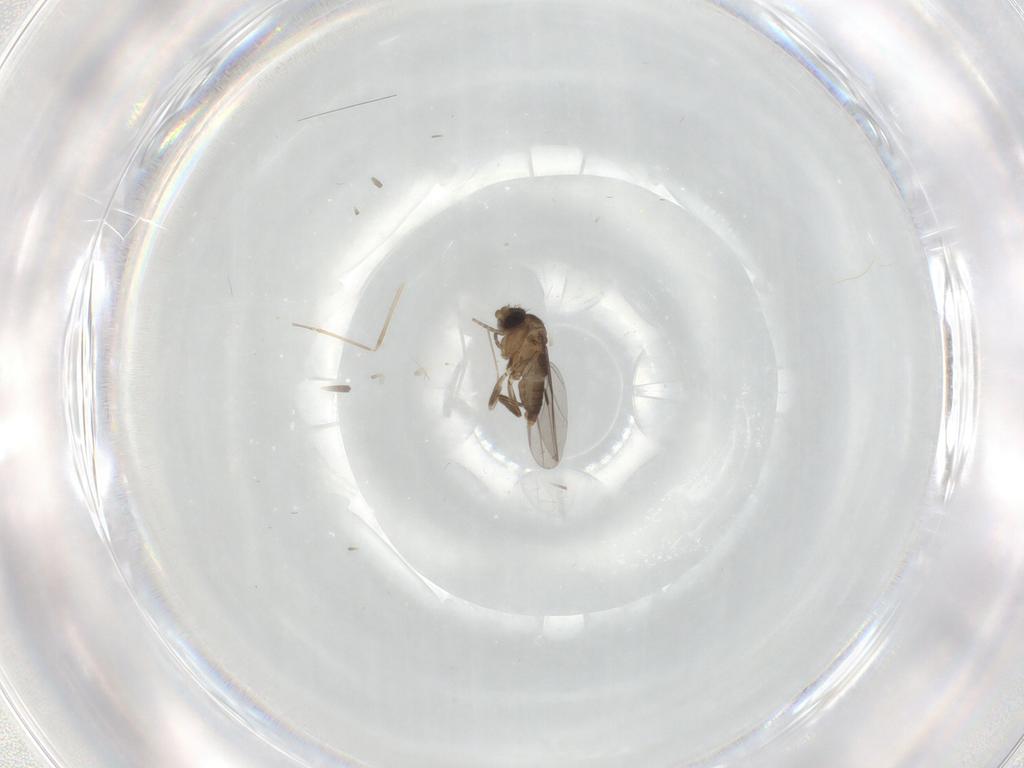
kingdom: Animalia
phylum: Arthropoda
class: Insecta
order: Diptera
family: Phoridae
